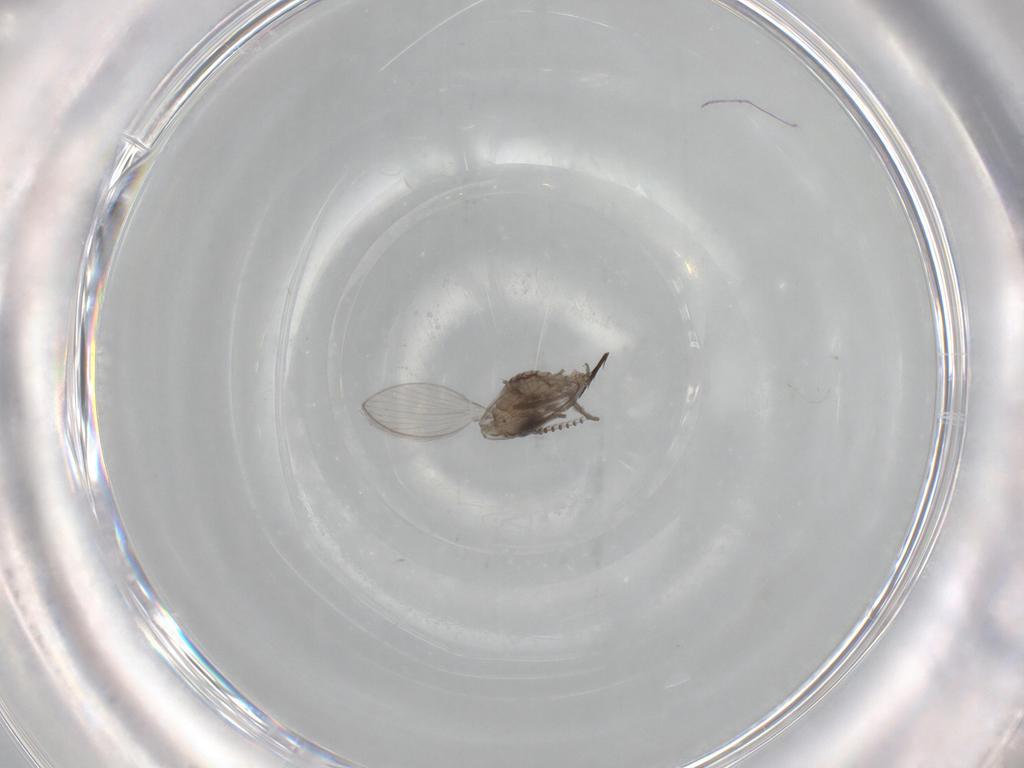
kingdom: Animalia
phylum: Arthropoda
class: Insecta
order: Diptera
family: Psychodidae
